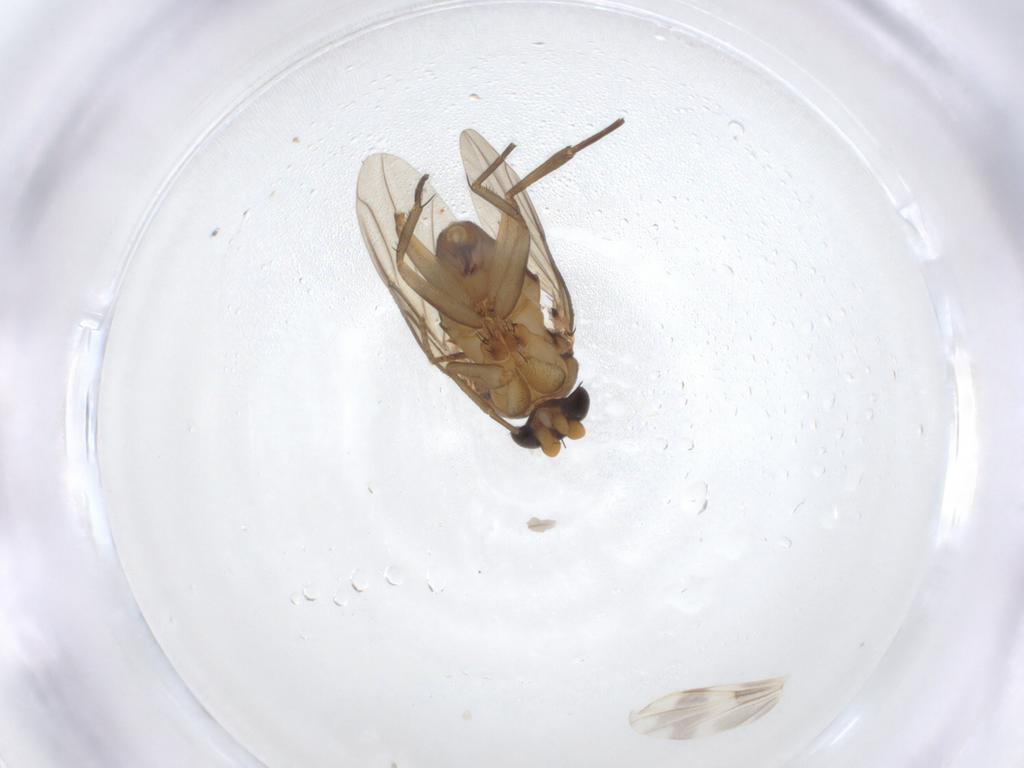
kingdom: Animalia
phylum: Arthropoda
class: Insecta
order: Diptera
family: Phoridae
